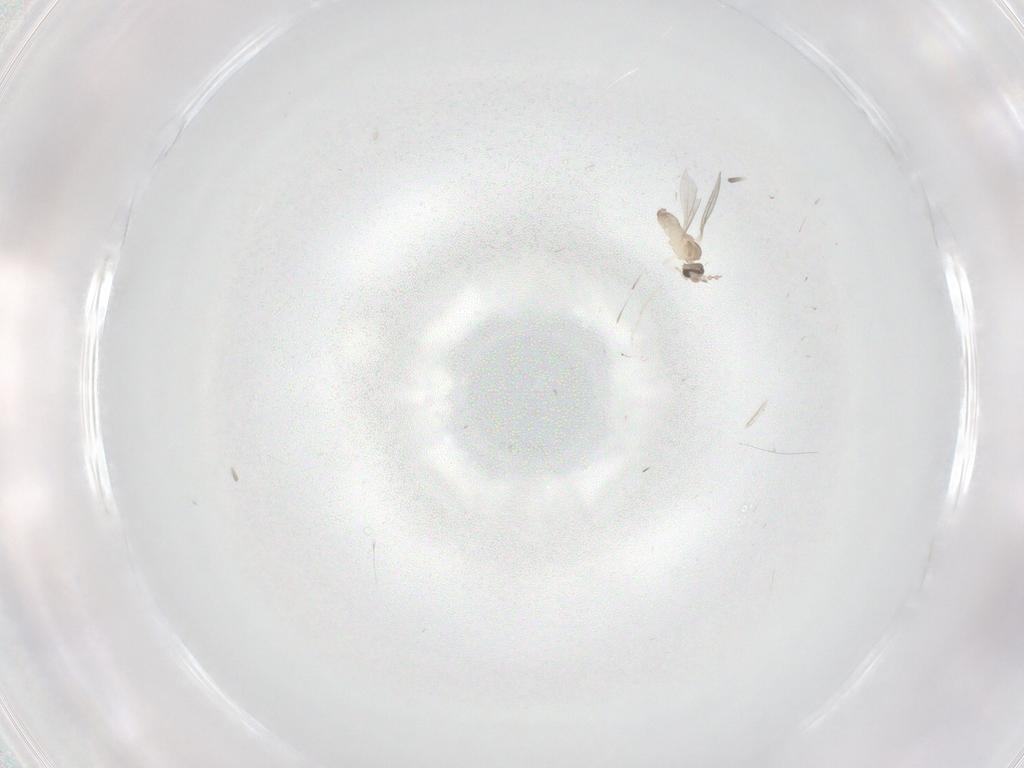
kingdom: Animalia
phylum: Arthropoda
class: Insecta
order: Diptera
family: Cecidomyiidae
